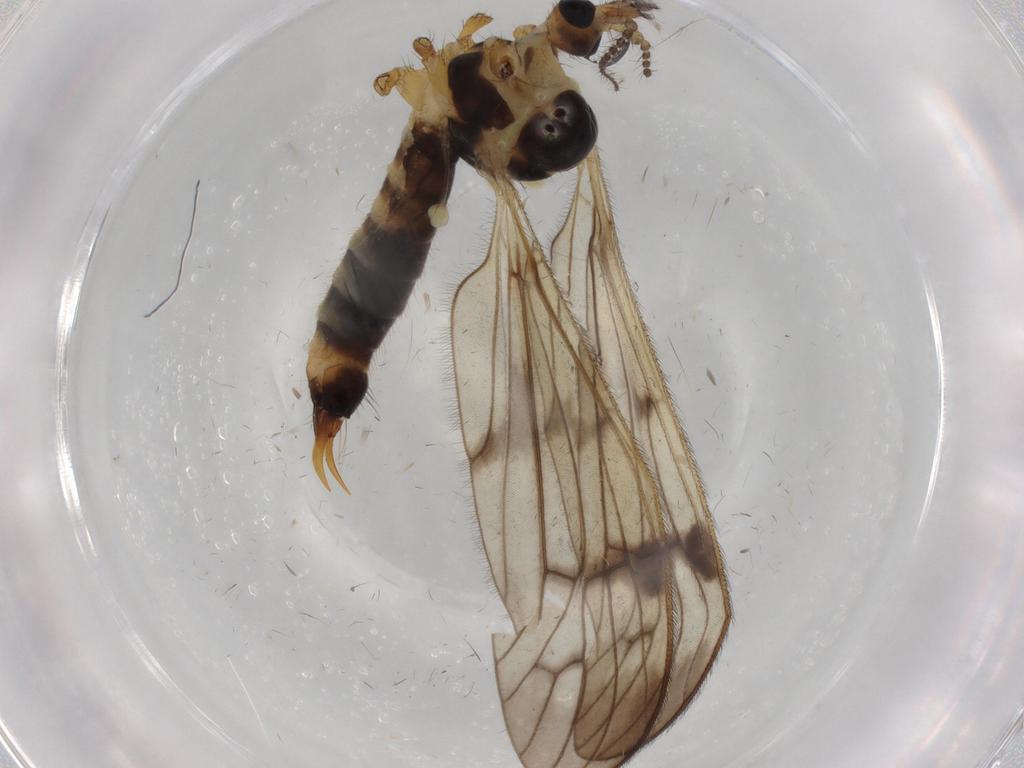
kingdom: Animalia
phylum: Arthropoda
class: Insecta
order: Diptera
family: Limoniidae
